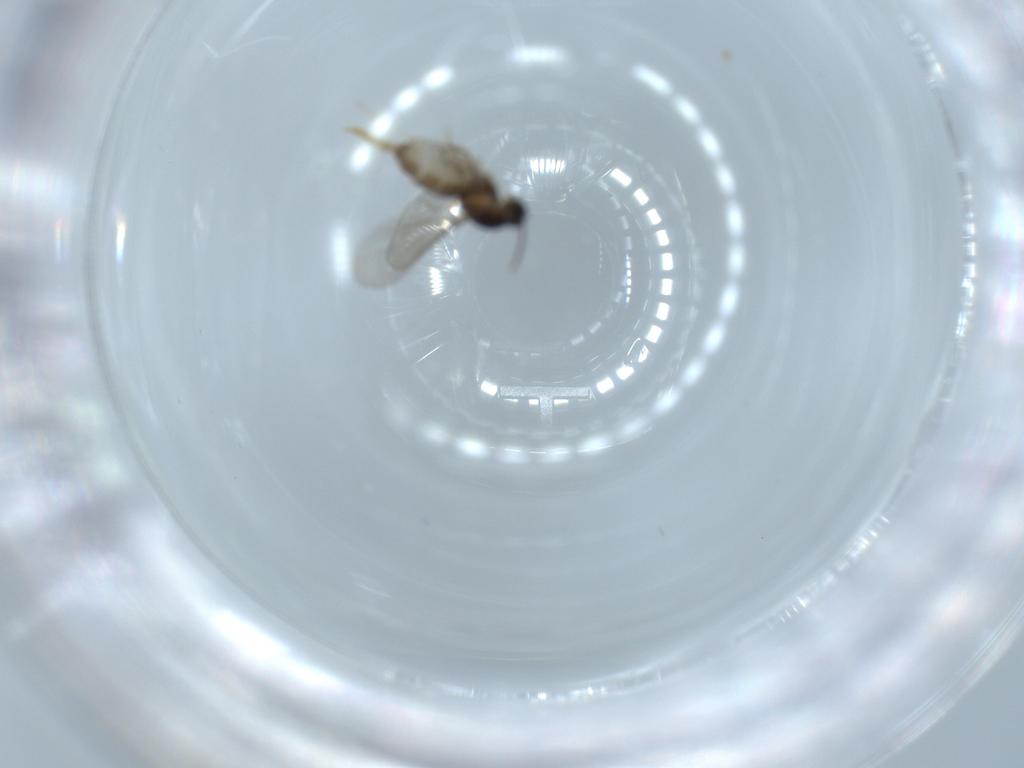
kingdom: Animalia
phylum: Arthropoda
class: Insecta
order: Diptera
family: Cecidomyiidae
